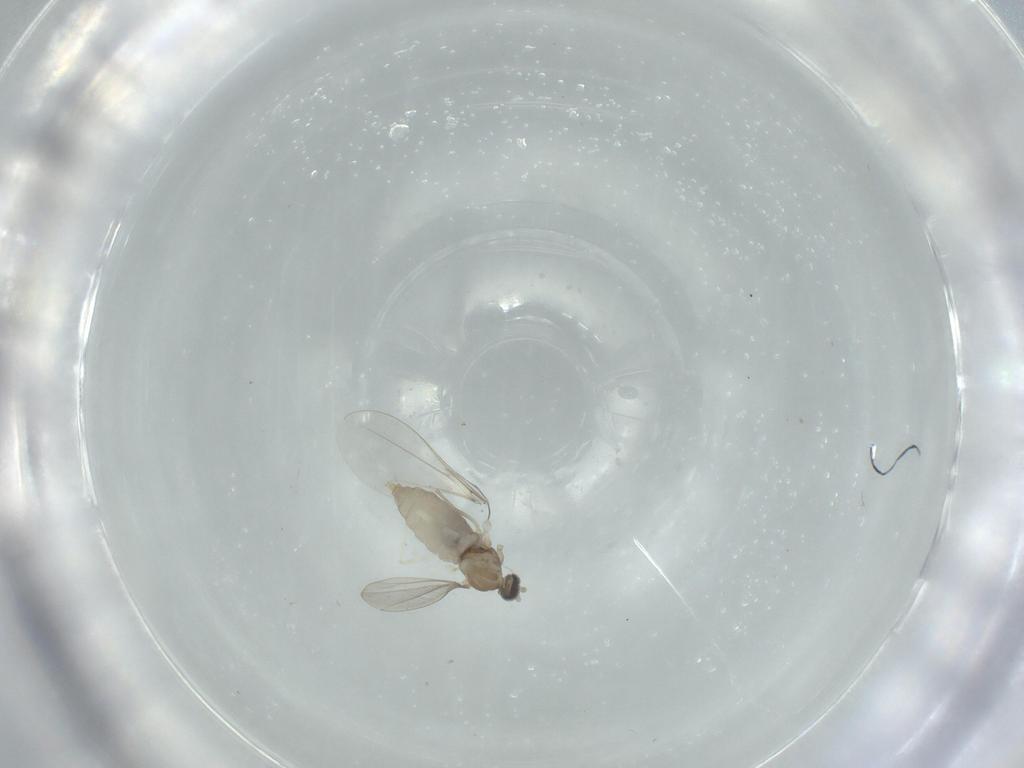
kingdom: Animalia
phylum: Arthropoda
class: Insecta
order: Diptera
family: Cecidomyiidae
